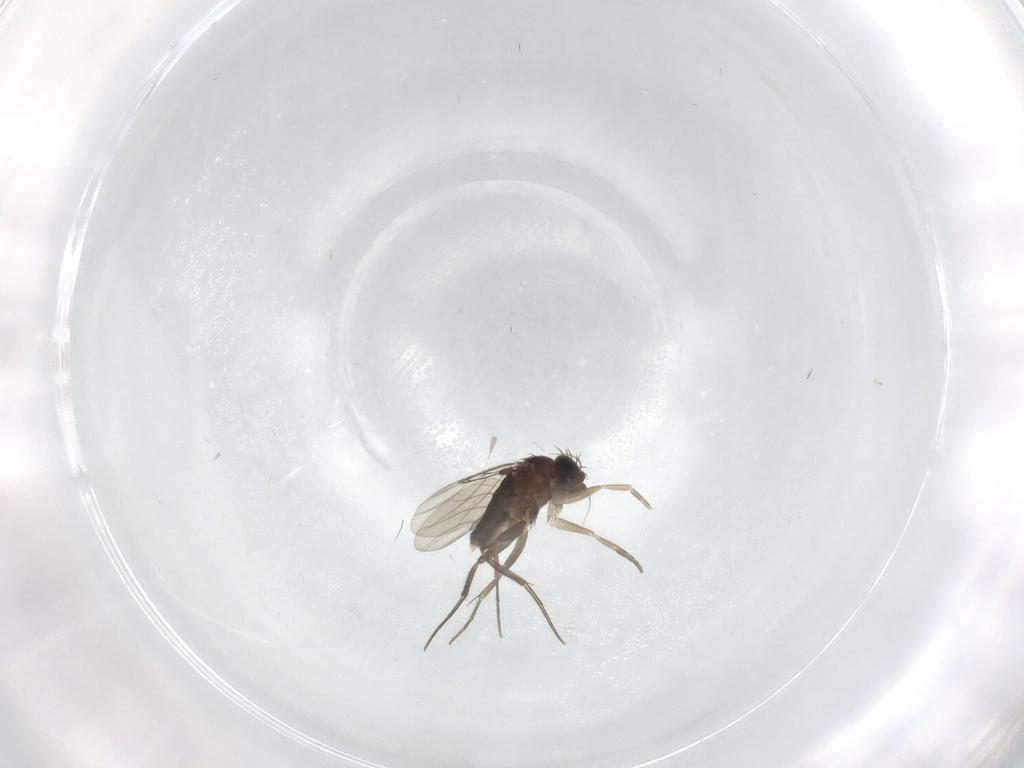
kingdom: Animalia
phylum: Arthropoda
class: Insecta
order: Diptera
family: Phoridae
